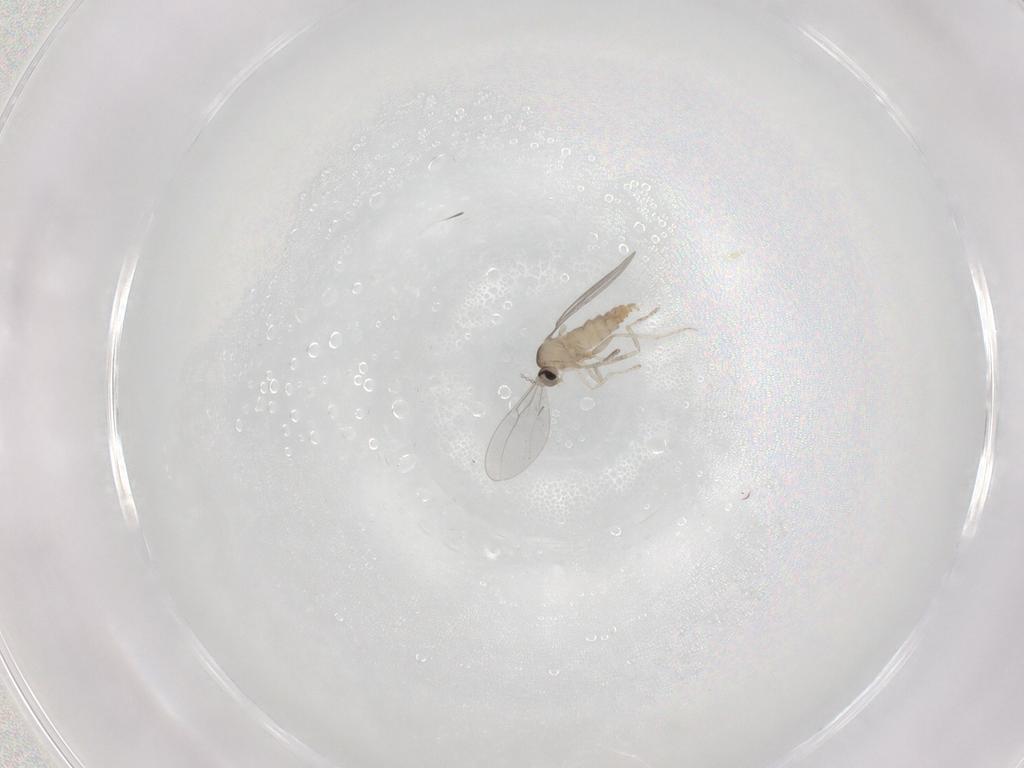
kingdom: Animalia
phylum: Arthropoda
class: Insecta
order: Diptera
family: Cecidomyiidae
